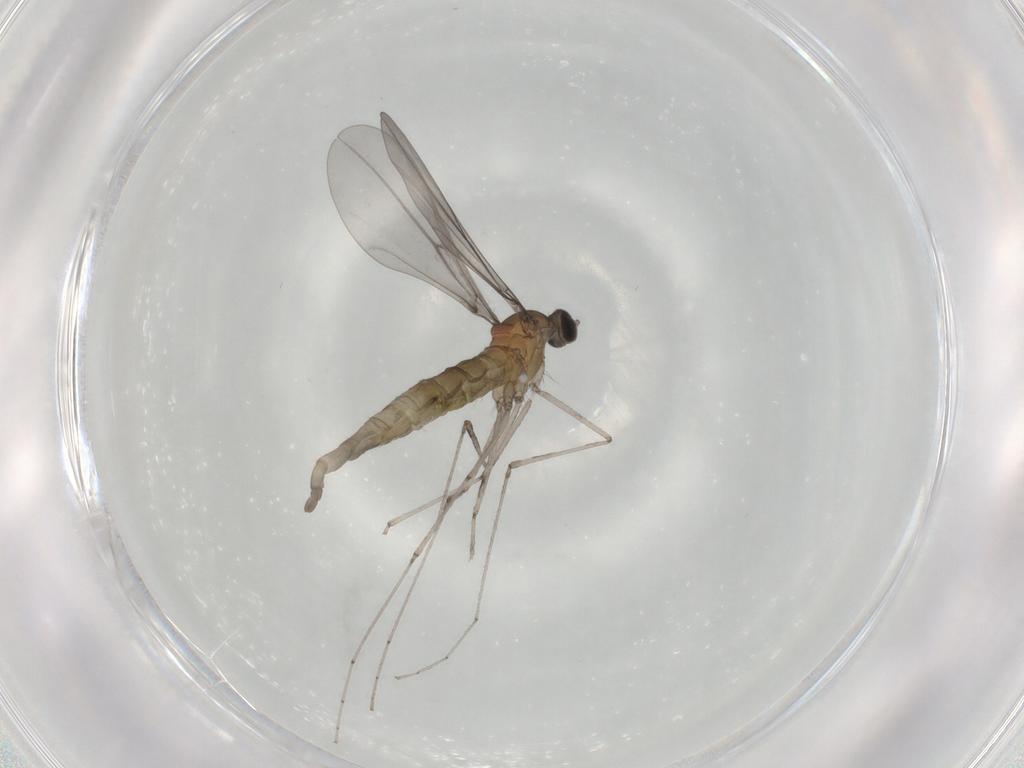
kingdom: Animalia
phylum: Arthropoda
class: Insecta
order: Diptera
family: Cecidomyiidae
